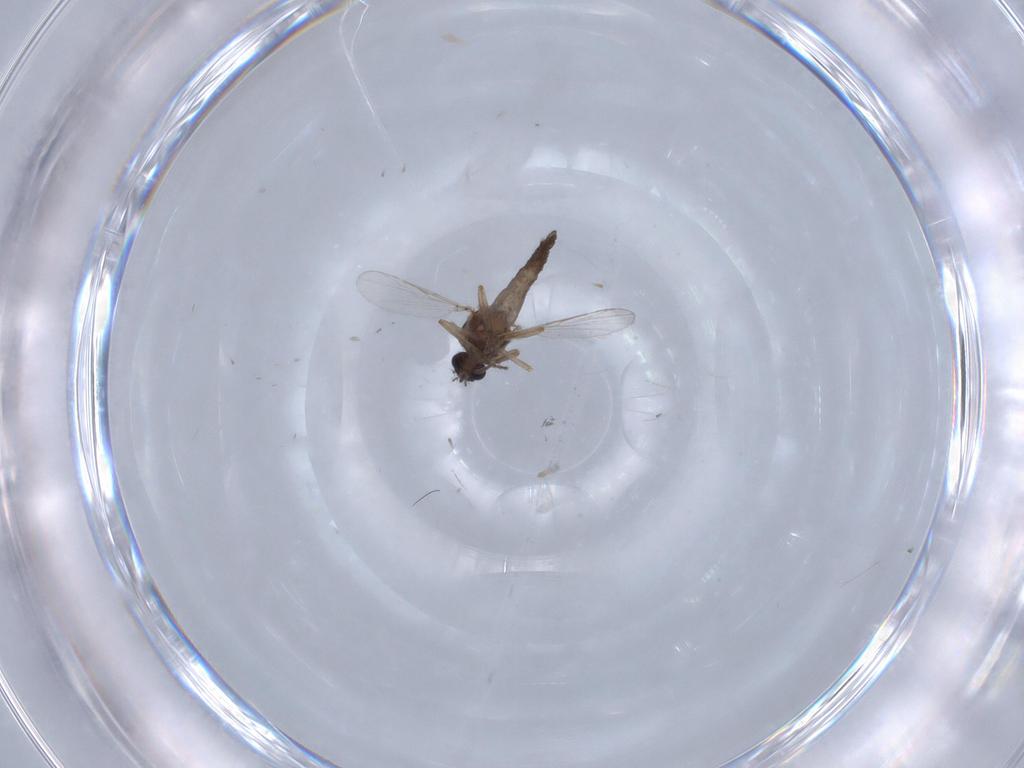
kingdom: Animalia
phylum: Arthropoda
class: Insecta
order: Diptera
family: Ceratopogonidae
